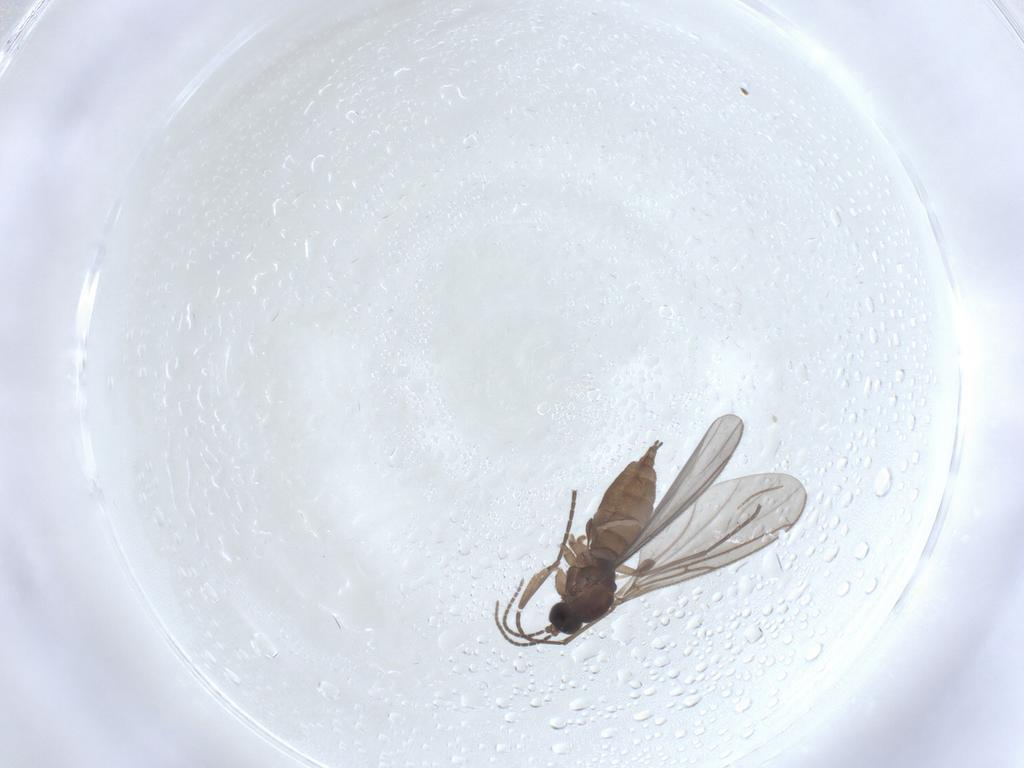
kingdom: Animalia
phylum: Arthropoda
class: Insecta
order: Diptera
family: Sciaridae
